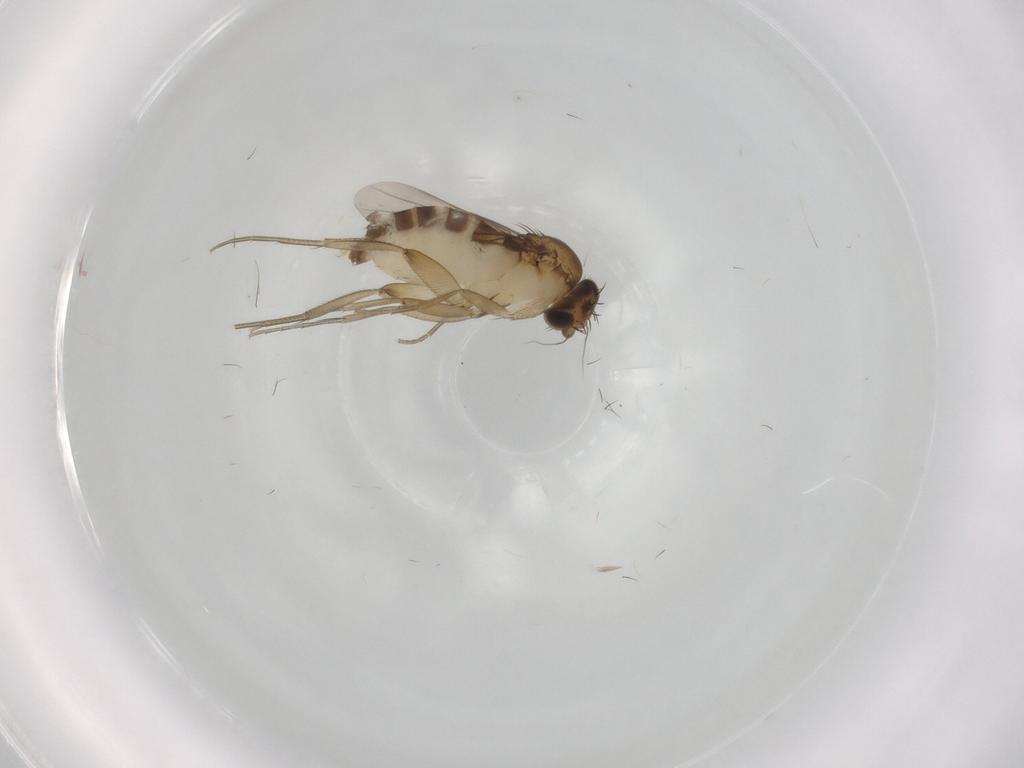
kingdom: Animalia
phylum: Arthropoda
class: Insecta
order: Diptera
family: Phoridae
